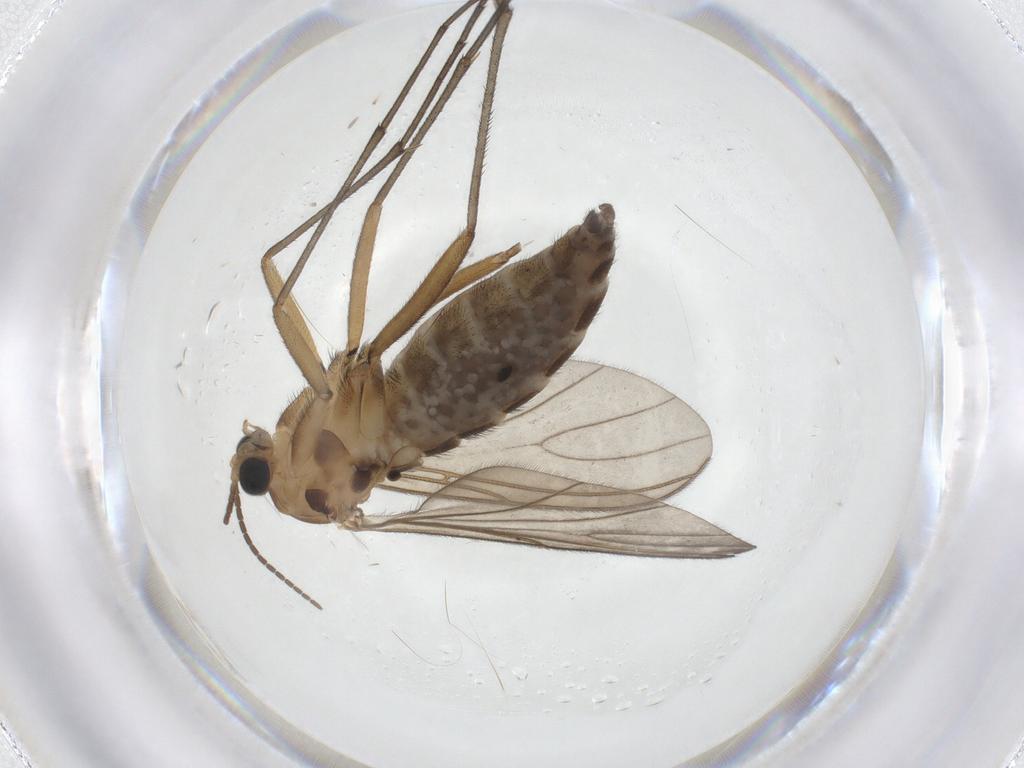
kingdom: Animalia
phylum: Arthropoda
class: Insecta
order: Diptera
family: Sciaridae
